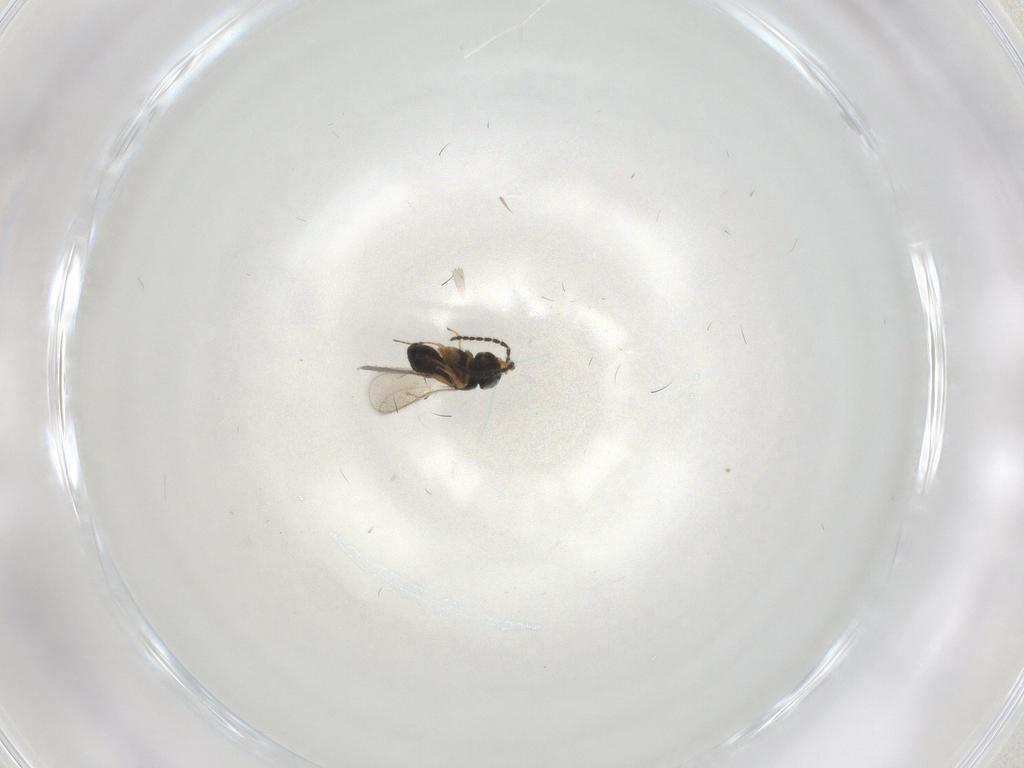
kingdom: Animalia
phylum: Arthropoda
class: Insecta
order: Hymenoptera
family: Scelionidae
